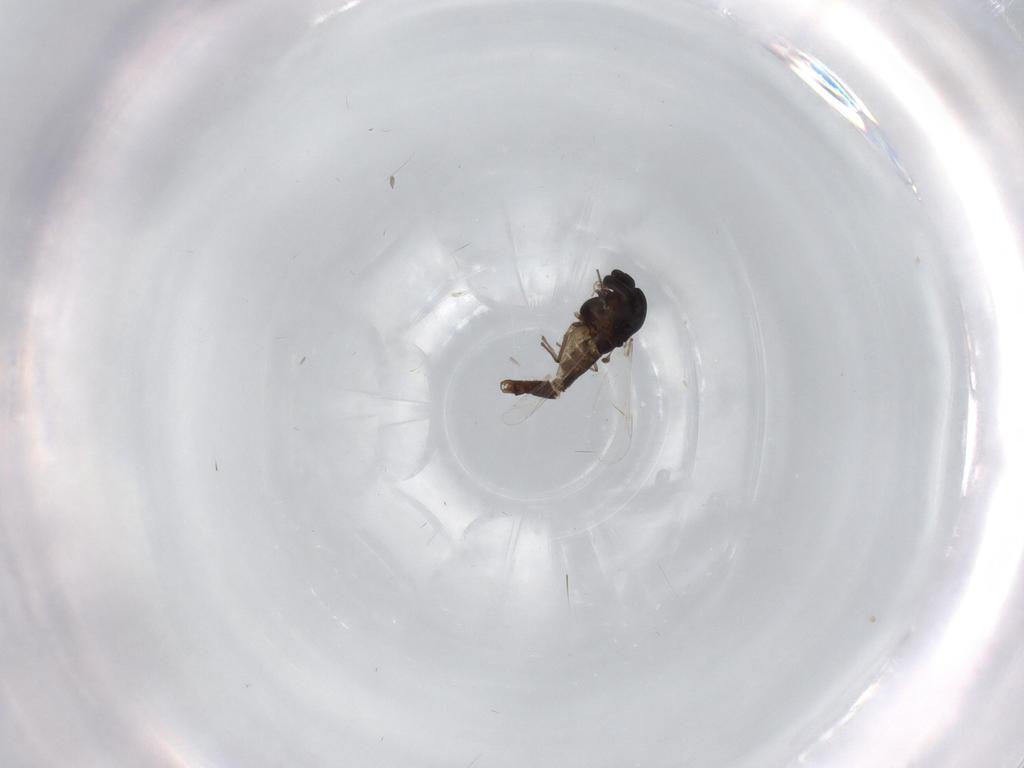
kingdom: Animalia
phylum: Arthropoda
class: Insecta
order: Diptera
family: Chironomidae
